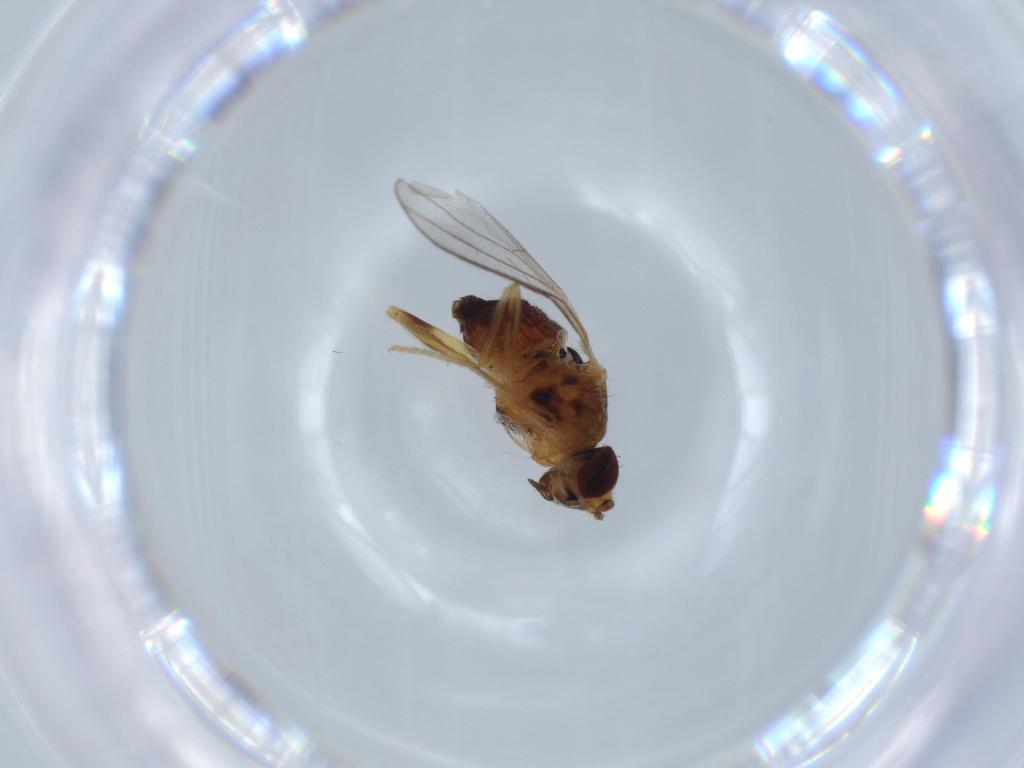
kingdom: Animalia
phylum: Arthropoda
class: Insecta
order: Diptera
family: Chloropidae
